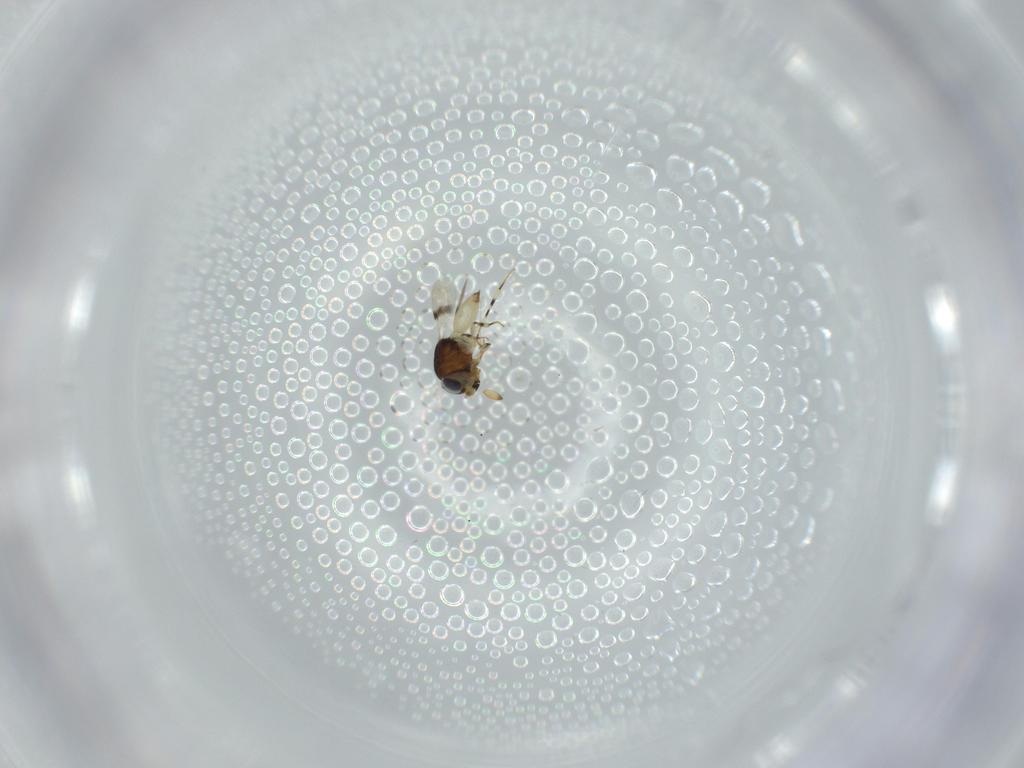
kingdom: Animalia
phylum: Arthropoda
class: Insecta
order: Hymenoptera
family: Scelionidae
